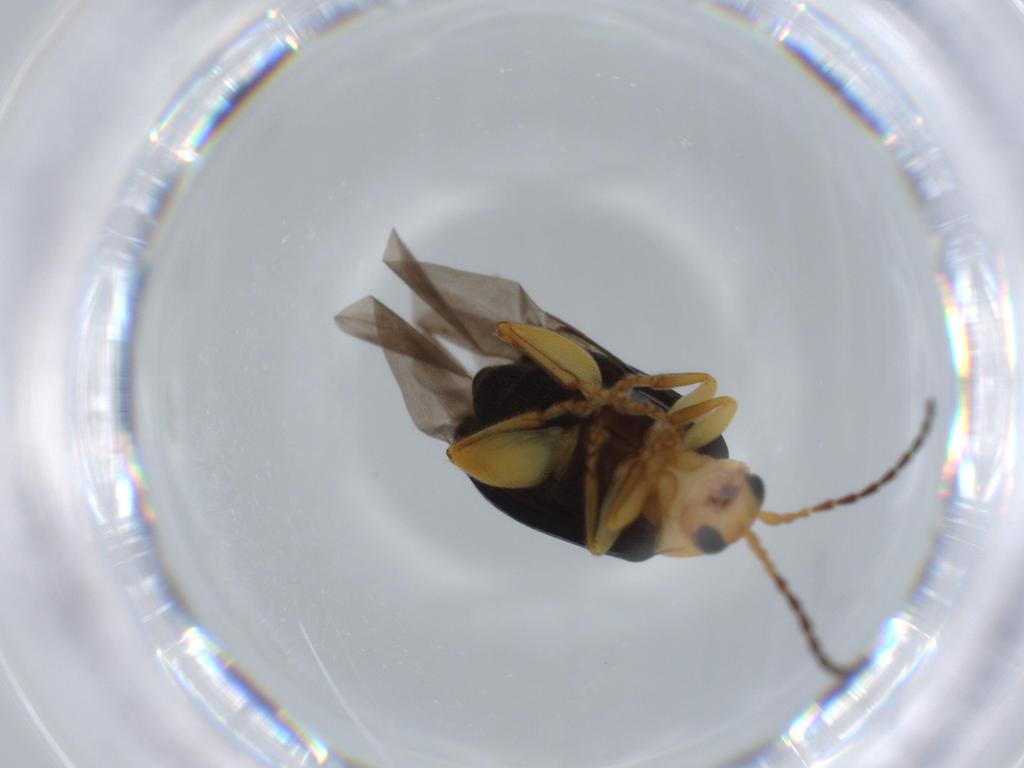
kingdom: Animalia
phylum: Arthropoda
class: Insecta
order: Coleoptera
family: Chrysomelidae
